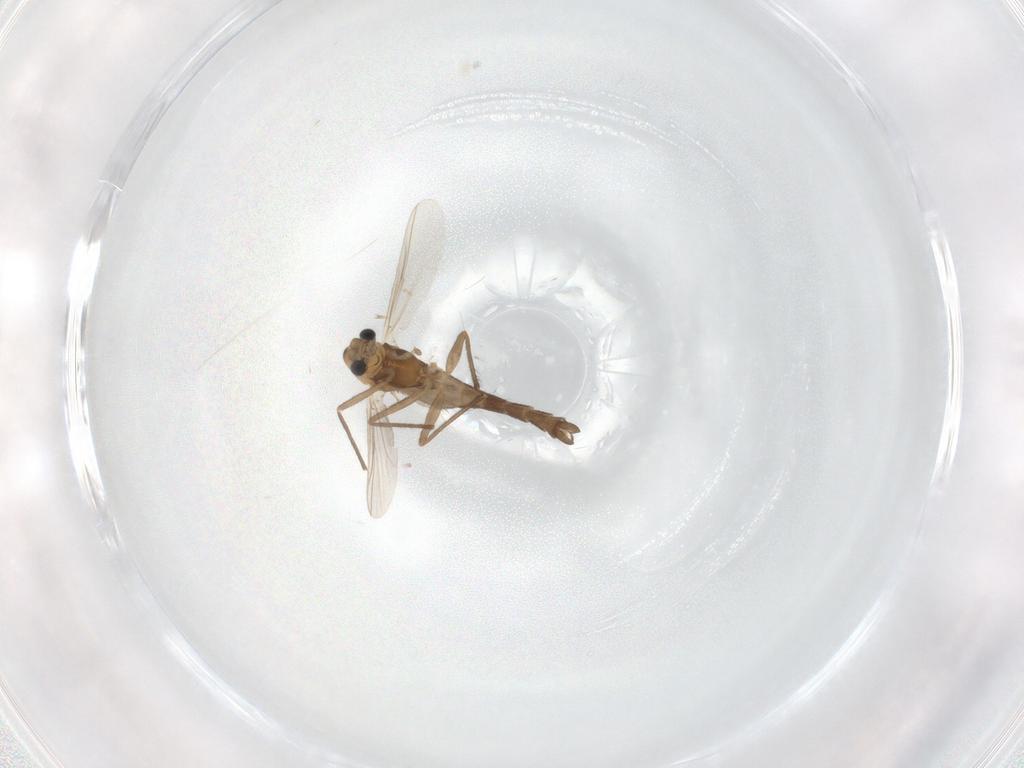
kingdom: Animalia
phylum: Arthropoda
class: Insecta
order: Diptera
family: Chironomidae
